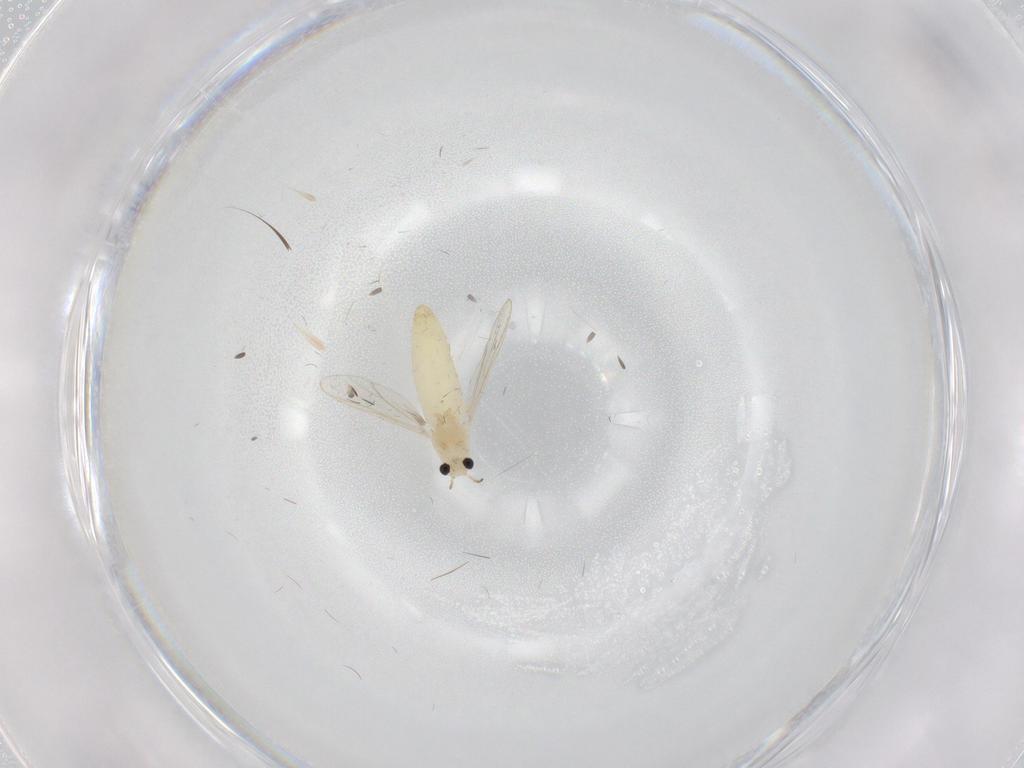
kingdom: Animalia
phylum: Arthropoda
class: Insecta
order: Diptera
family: Chironomidae
